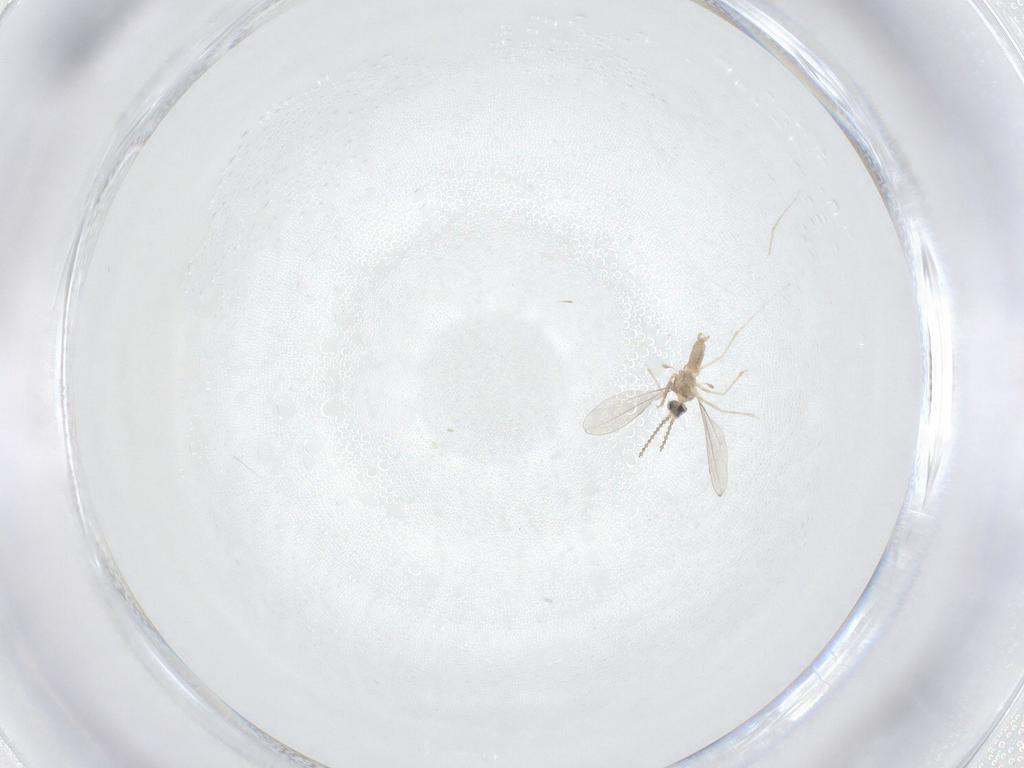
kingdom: Animalia
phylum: Arthropoda
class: Insecta
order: Diptera
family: Cecidomyiidae
